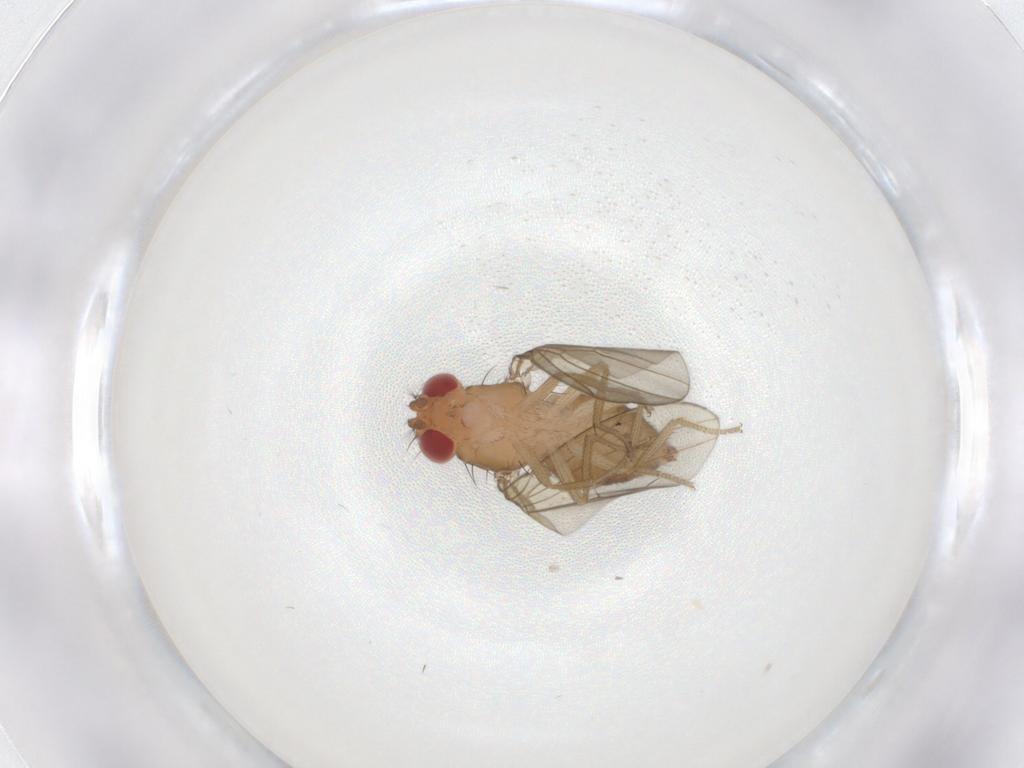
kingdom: Animalia
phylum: Arthropoda
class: Insecta
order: Diptera
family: Drosophilidae
